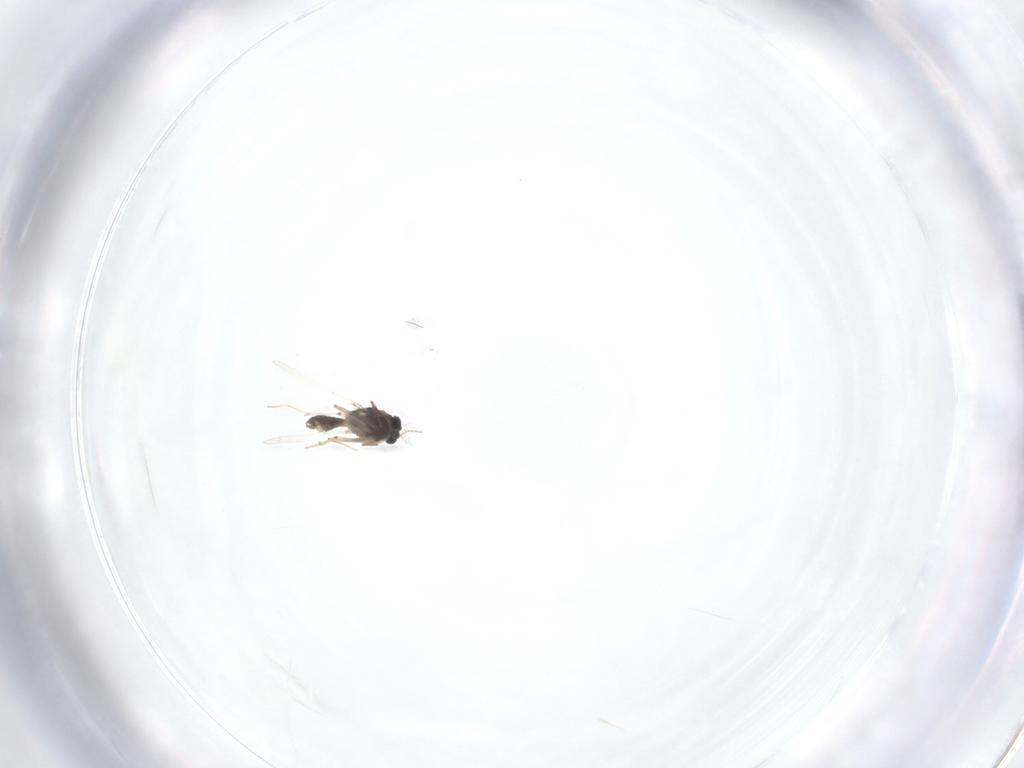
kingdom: Animalia
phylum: Arthropoda
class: Insecta
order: Diptera
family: Chironomidae
